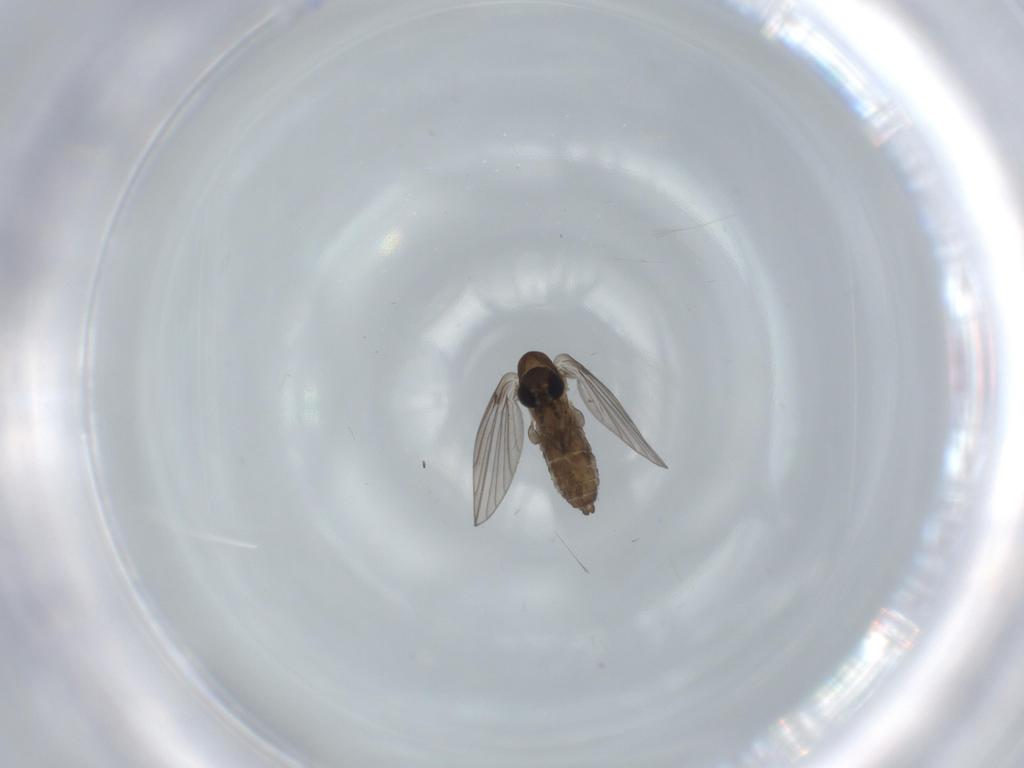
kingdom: Animalia
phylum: Arthropoda
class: Insecta
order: Diptera
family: Psychodidae
